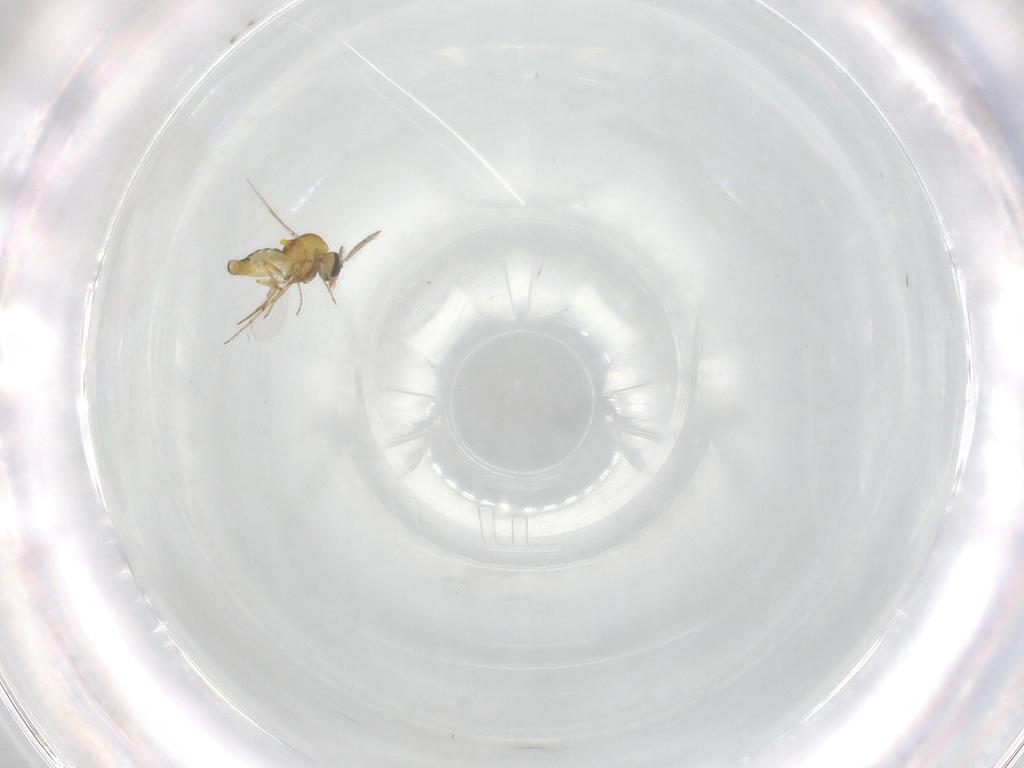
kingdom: Animalia
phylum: Arthropoda
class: Insecta
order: Diptera
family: Ceratopogonidae
